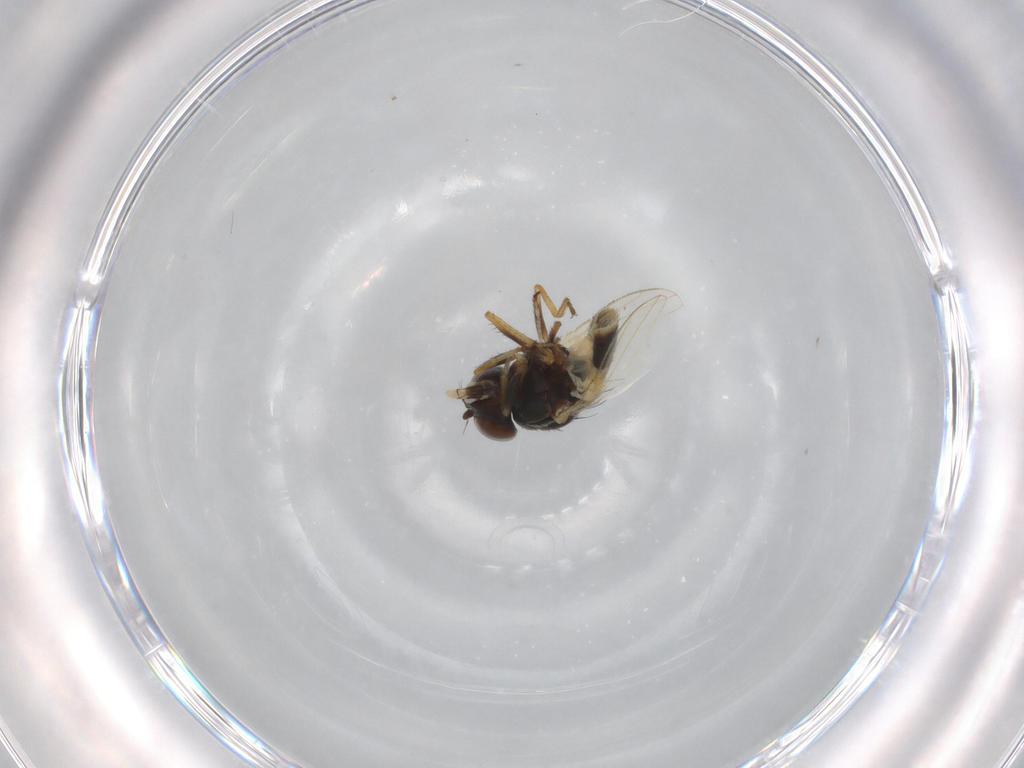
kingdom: Animalia
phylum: Arthropoda
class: Insecta
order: Diptera
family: Ephydridae
